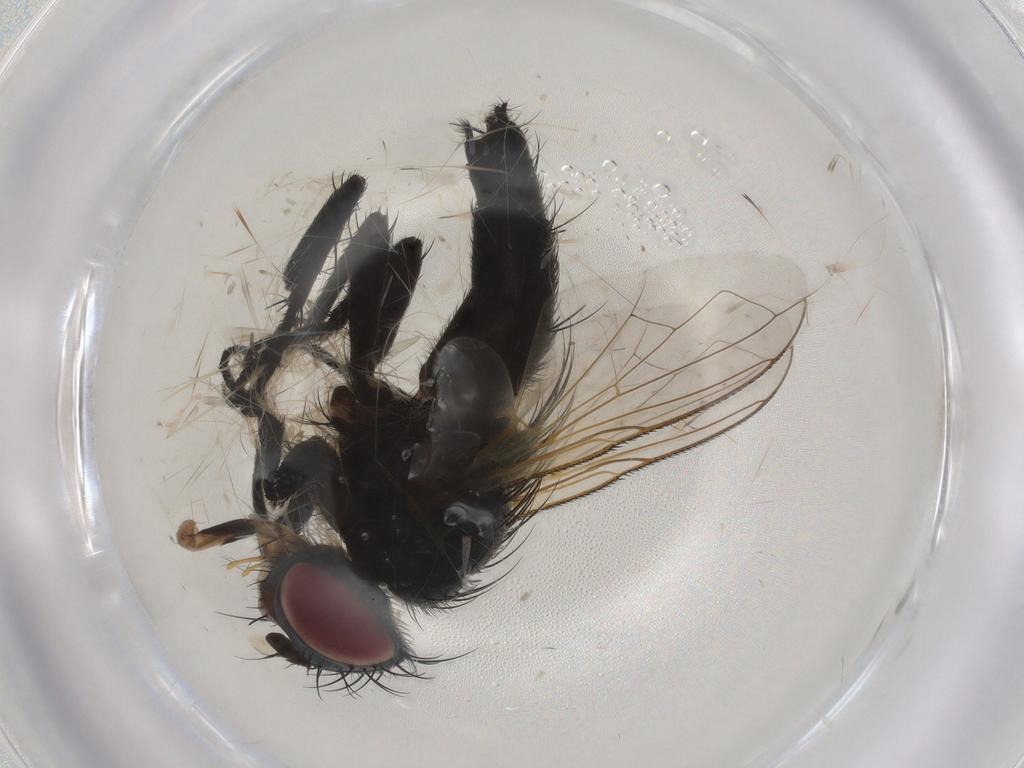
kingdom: Animalia
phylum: Arthropoda
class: Insecta
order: Diptera
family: Tachinidae
